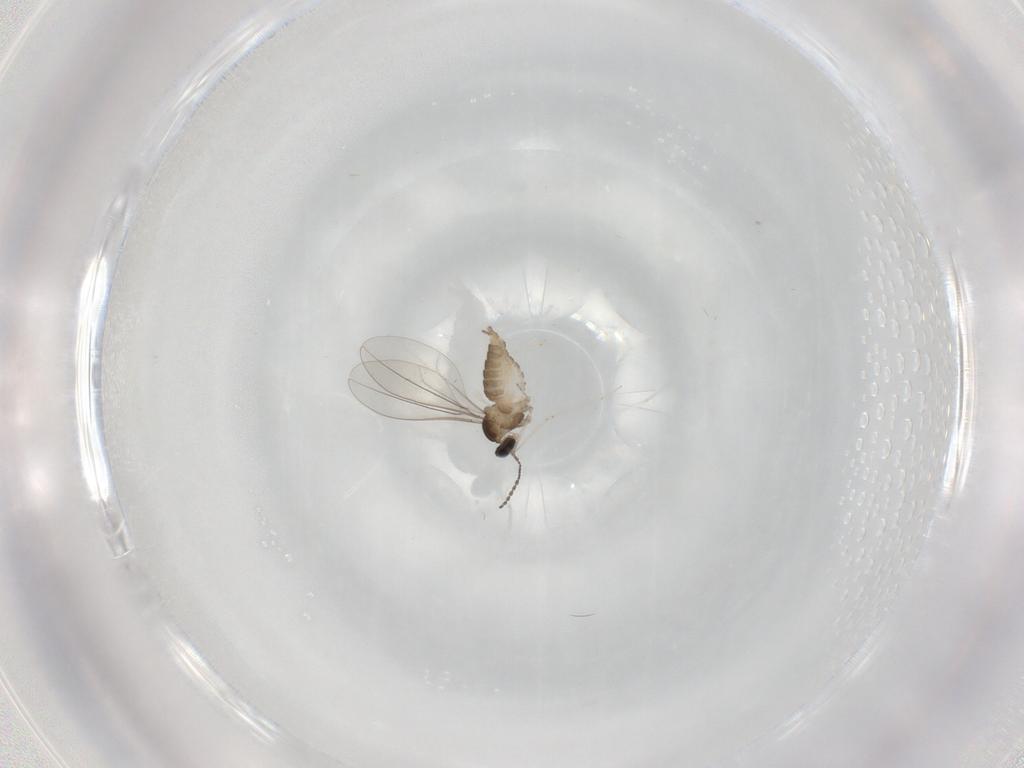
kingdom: Animalia
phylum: Arthropoda
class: Insecta
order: Diptera
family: Cecidomyiidae
